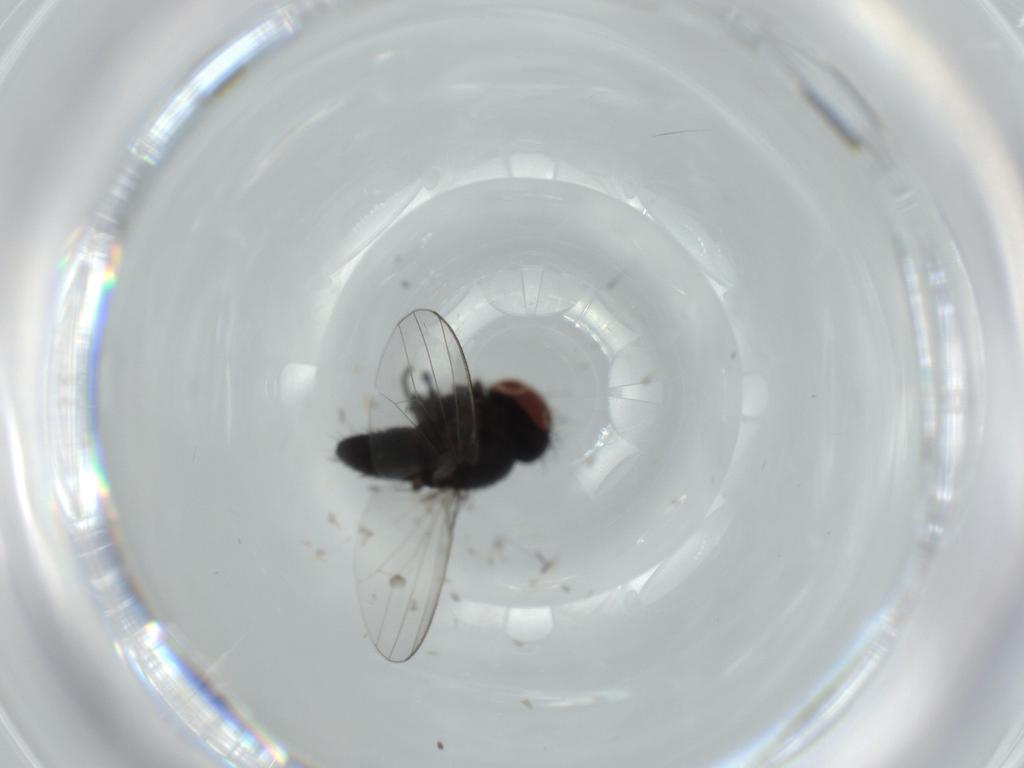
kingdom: Animalia
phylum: Arthropoda
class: Insecta
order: Diptera
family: Milichiidae
